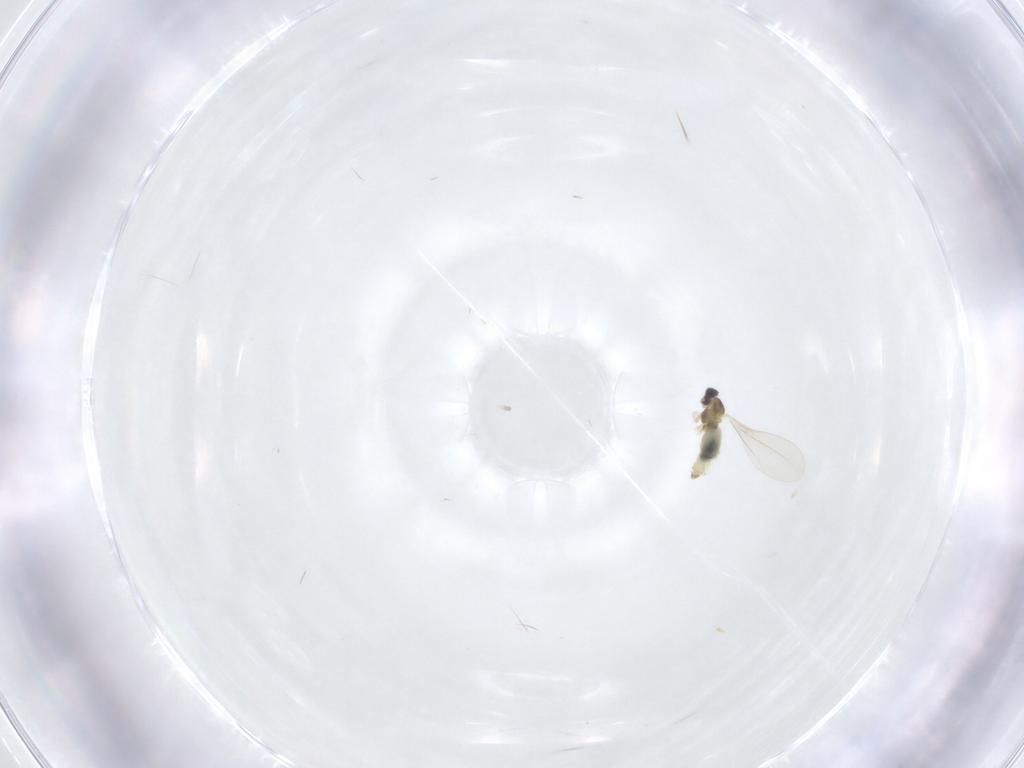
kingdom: Animalia
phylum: Arthropoda
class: Insecta
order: Diptera
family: Cecidomyiidae
